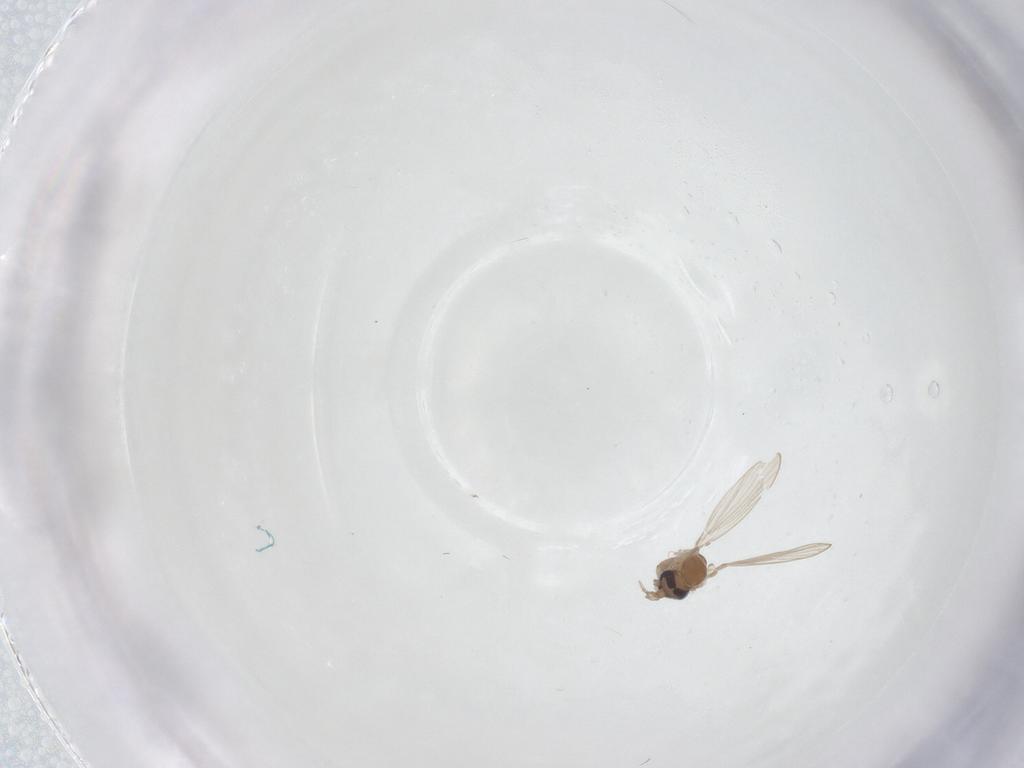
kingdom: Animalia
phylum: Arthropoda
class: Insecta
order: Diptera
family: Psychodidae
